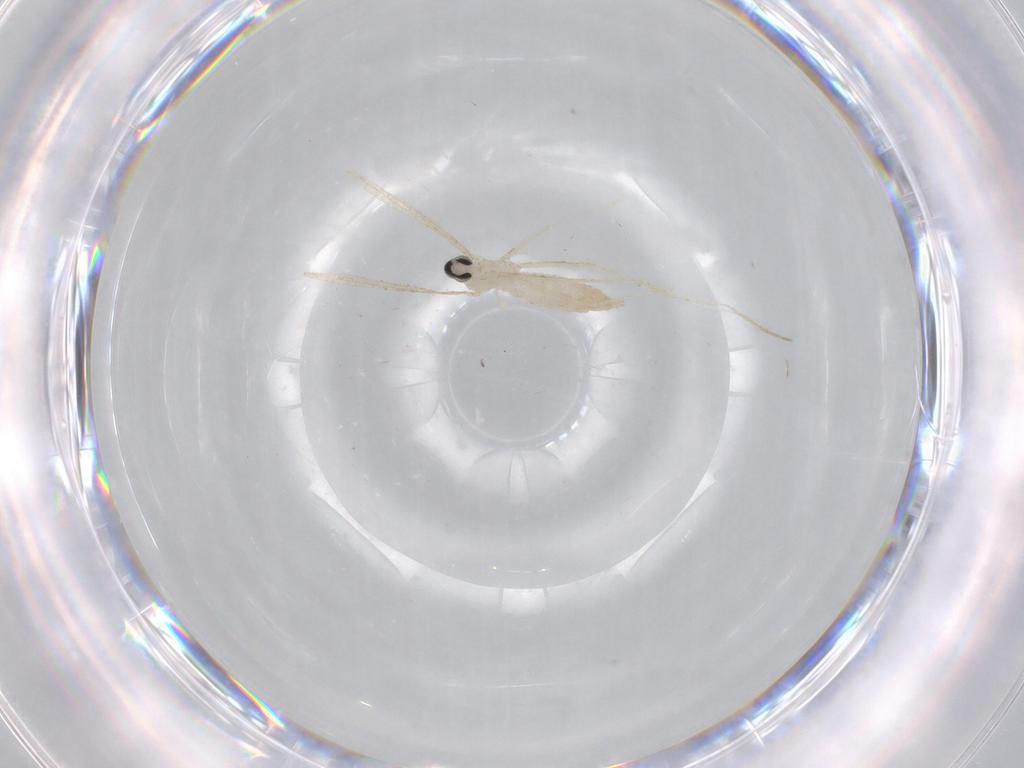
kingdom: Animalia
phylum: Arthropoda
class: Insecta
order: Diptera
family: Cecidomyiidae
